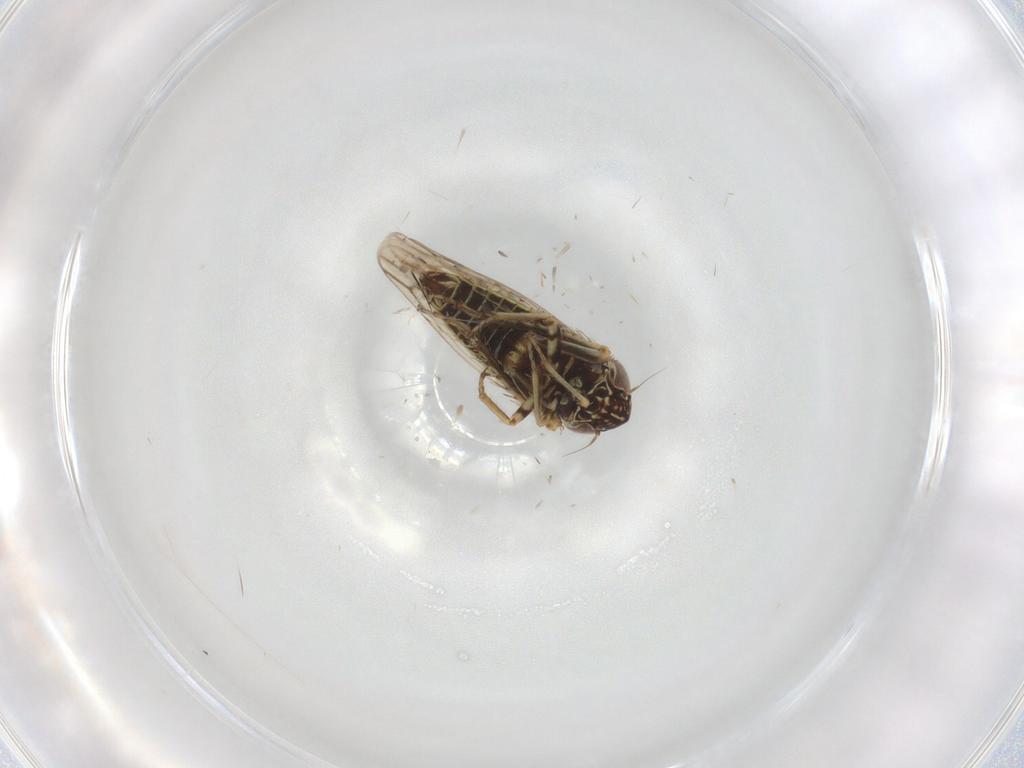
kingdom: Animalia
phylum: Arthropoda
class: Insecta
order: Hemiptera
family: Cicadellidae
